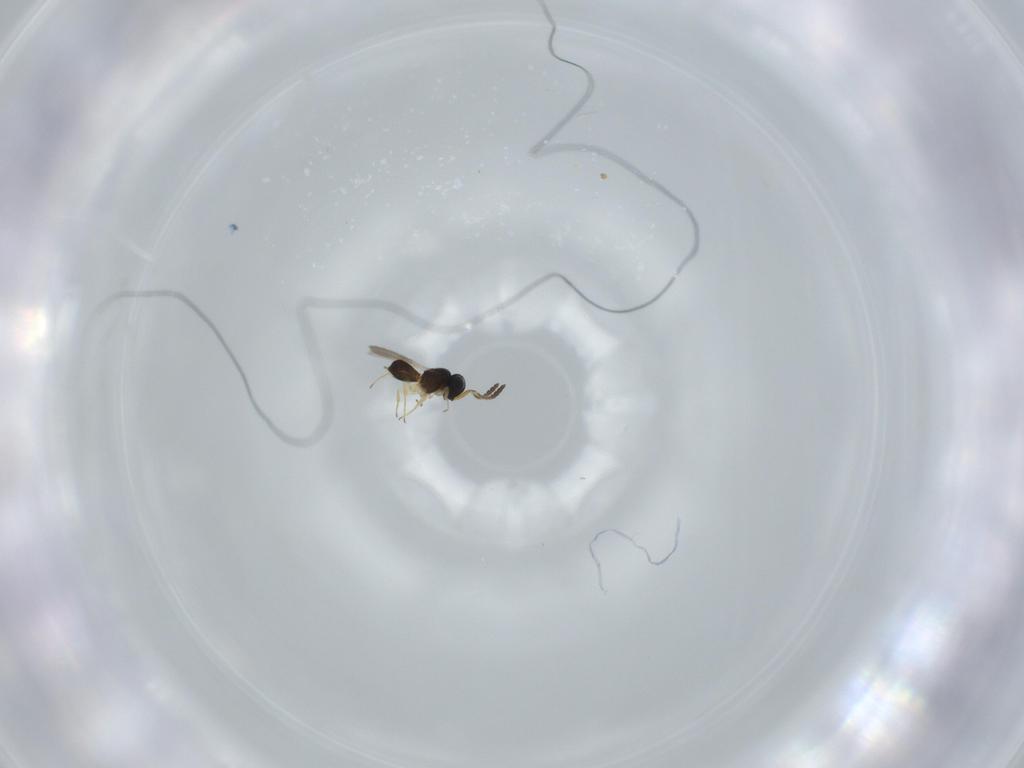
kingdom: Animalia
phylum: Arthropoda
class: Insecta
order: Hymenoptera
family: Scelionidae
